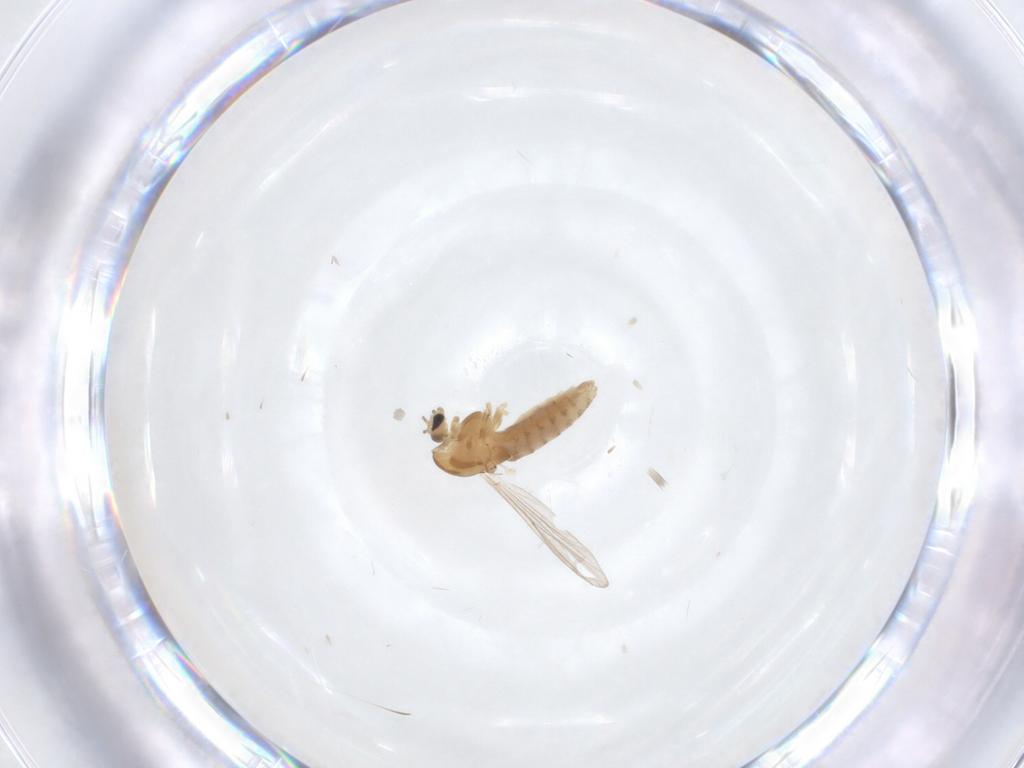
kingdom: Animalia
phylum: Arthropoda
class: Insecta
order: Diptera
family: Chironomidae
